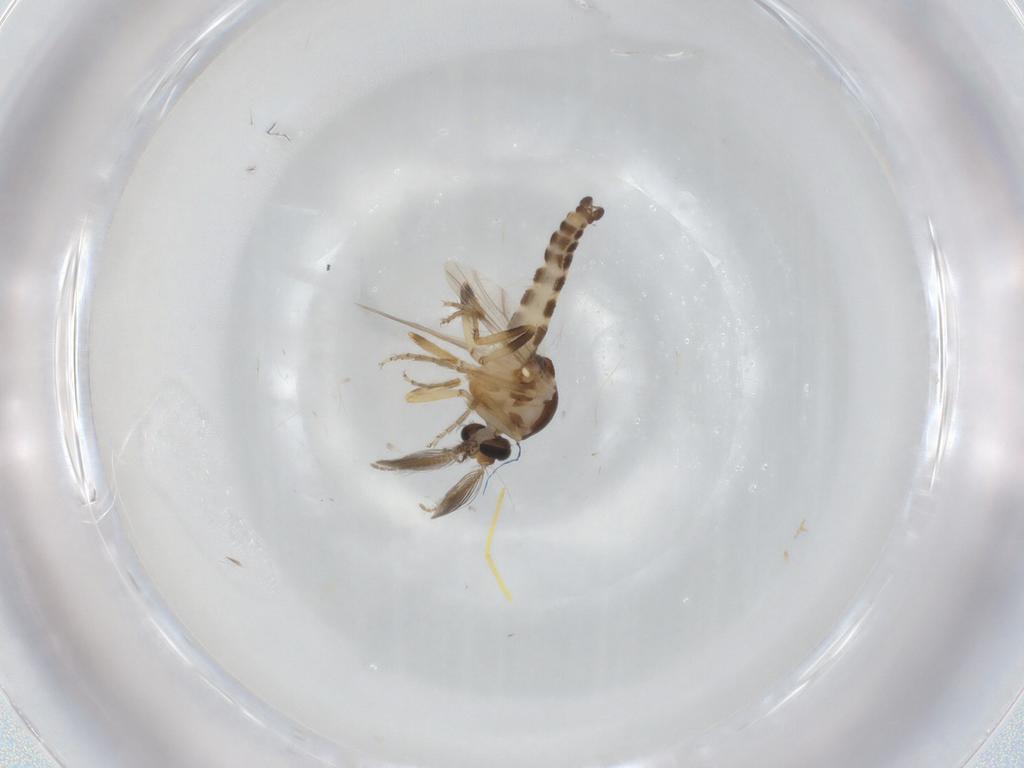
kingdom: Animalia
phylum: Arthropoda
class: Insecta
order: Diptera
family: Ceratopogonidae
